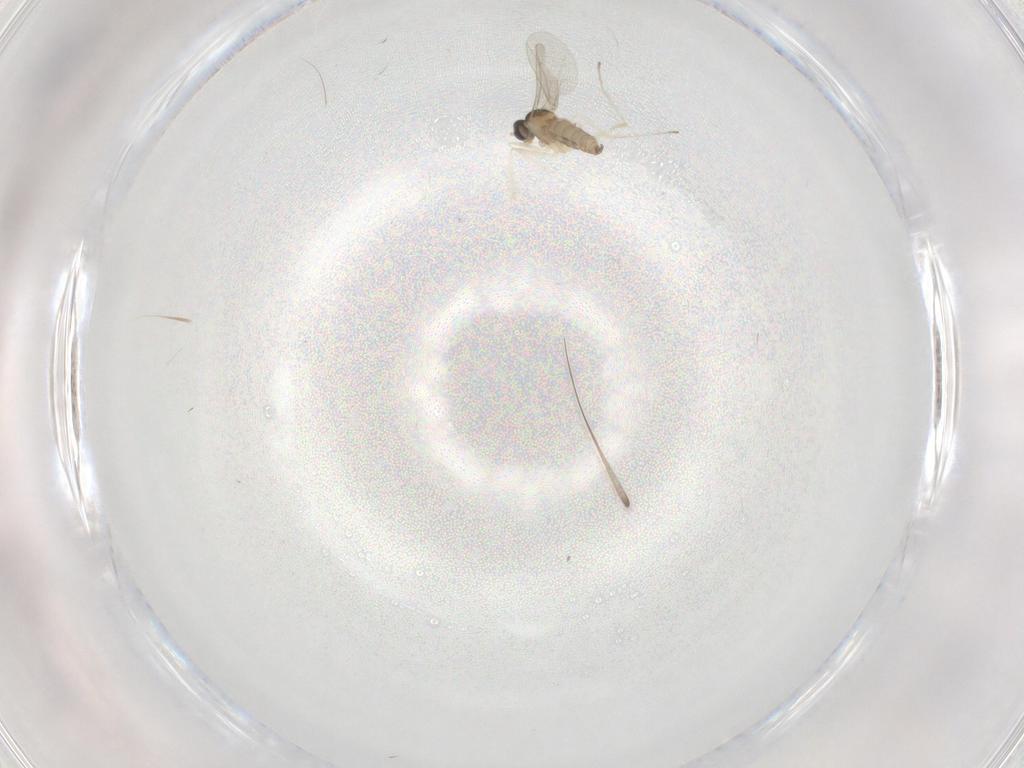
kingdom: Animalia
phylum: Arthropoda
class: Insecta
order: Diptera
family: Cecidomyiidae
